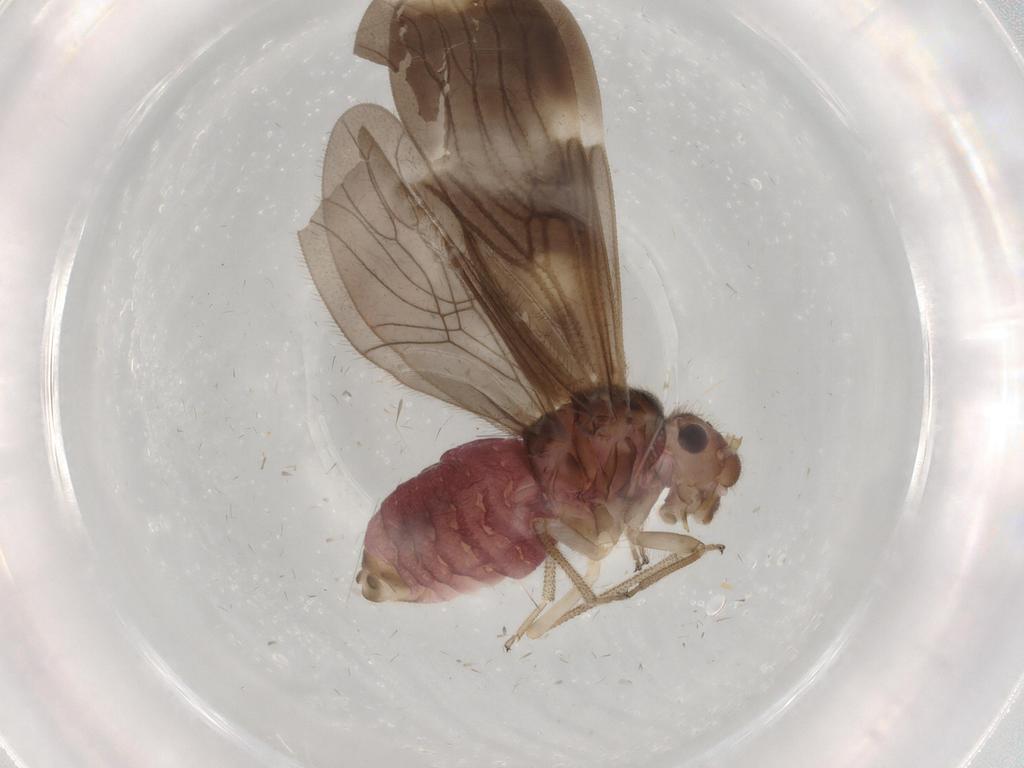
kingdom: Animalia
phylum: Arthropoda
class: Insecta
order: Psocodea
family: Amphipsocidae
